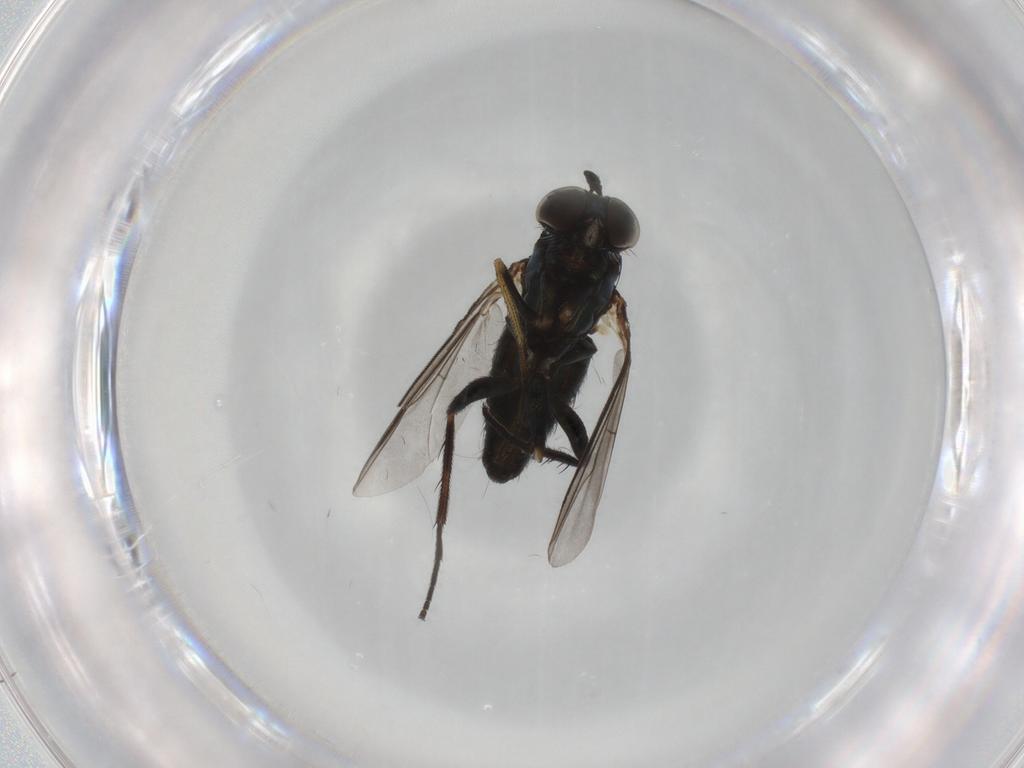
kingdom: Animalia
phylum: Arthropoda
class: Insecta
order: Diptera
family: Dolichopodidae
